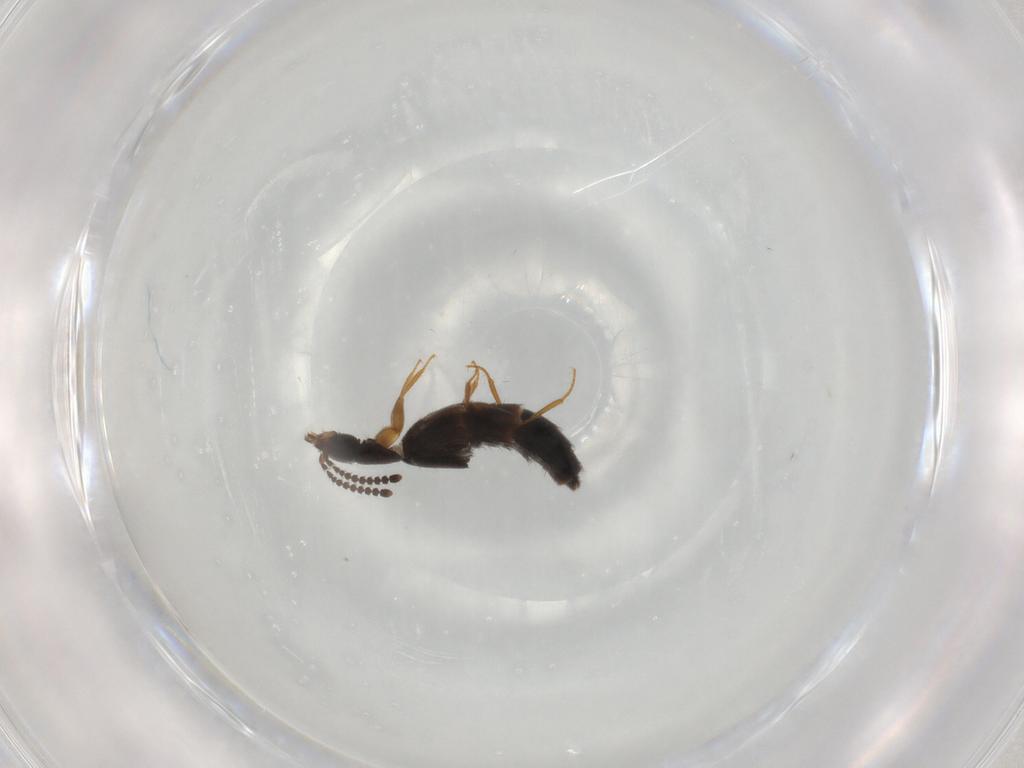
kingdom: Animalia
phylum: Arthropoda
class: Insecta
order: Coleoptera
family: Staphylinidae
